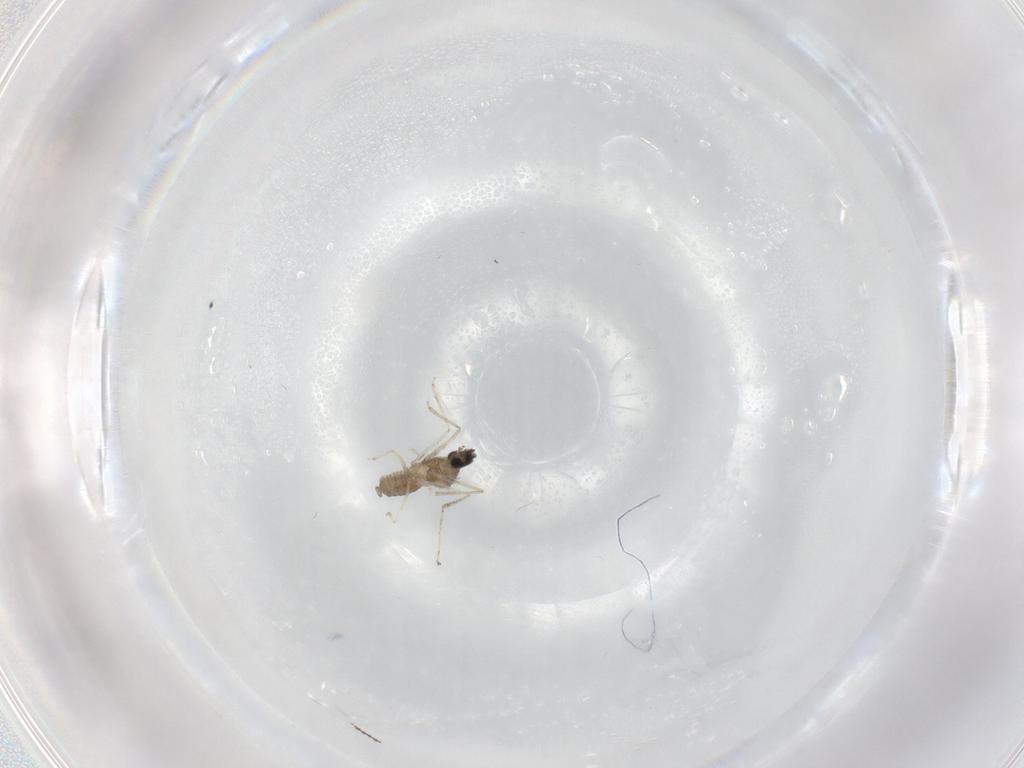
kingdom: Animalia
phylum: Arthropoda
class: Insecta
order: Diptera
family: Cecidomyiidae
